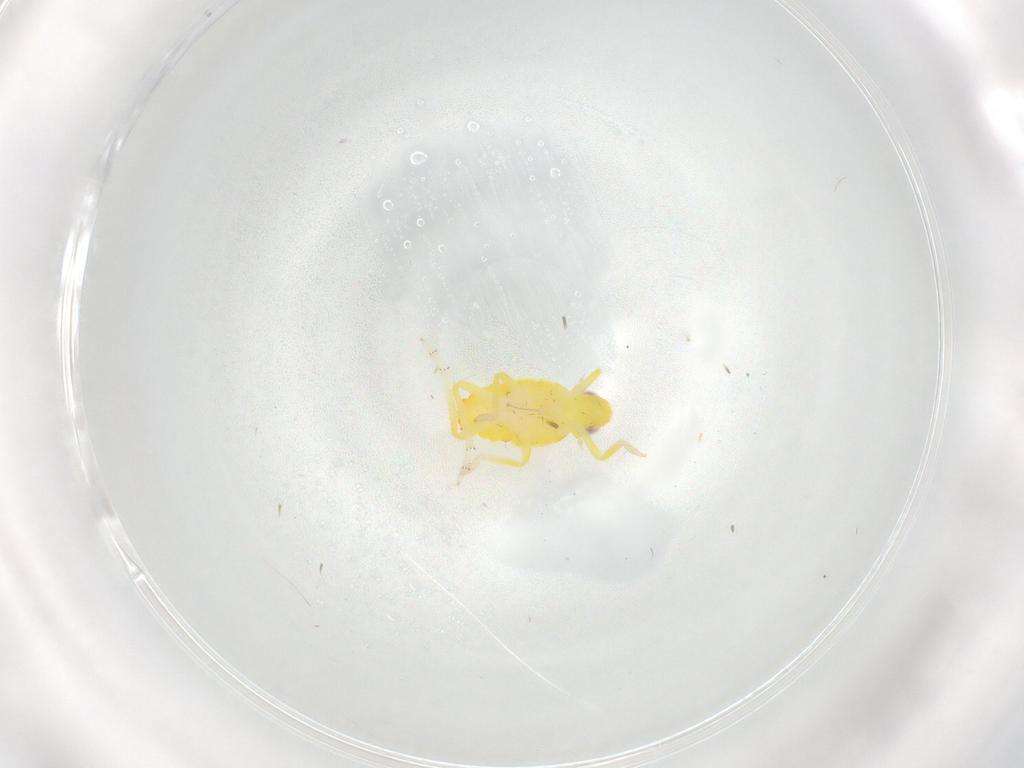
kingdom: Animalia
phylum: Arthropoda
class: Insecta
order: Hemiptera
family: Tropiduchidae
